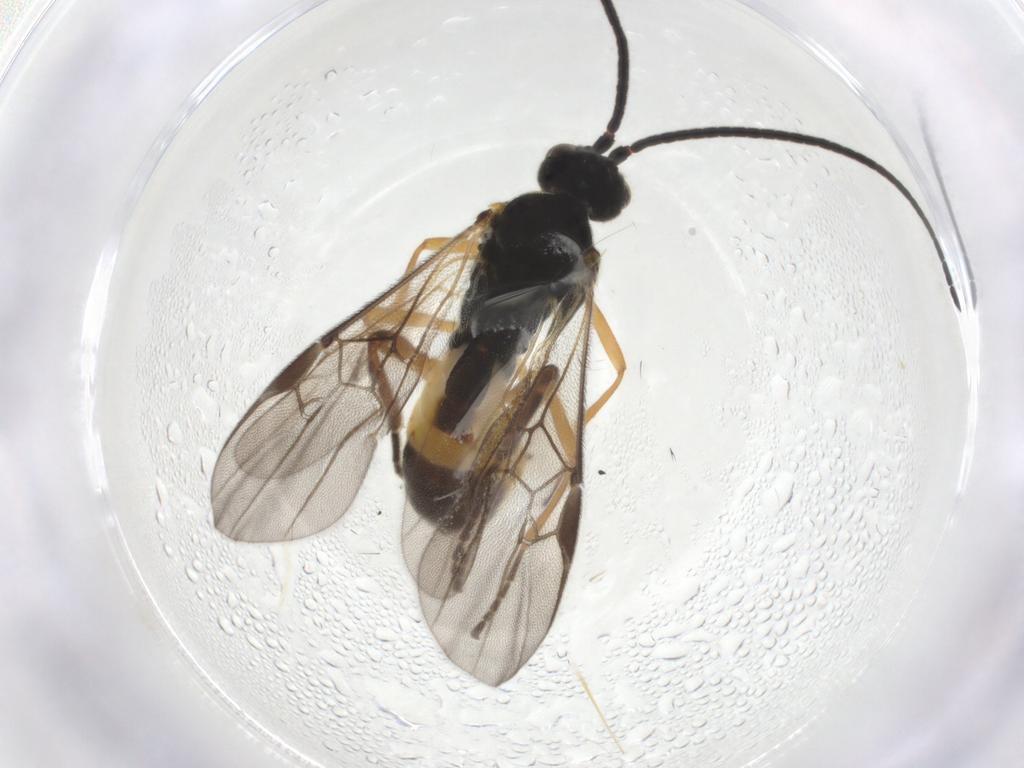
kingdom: Animalia
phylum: Arthropoda
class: Insecta
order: Hymenoptera
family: Braconidae
